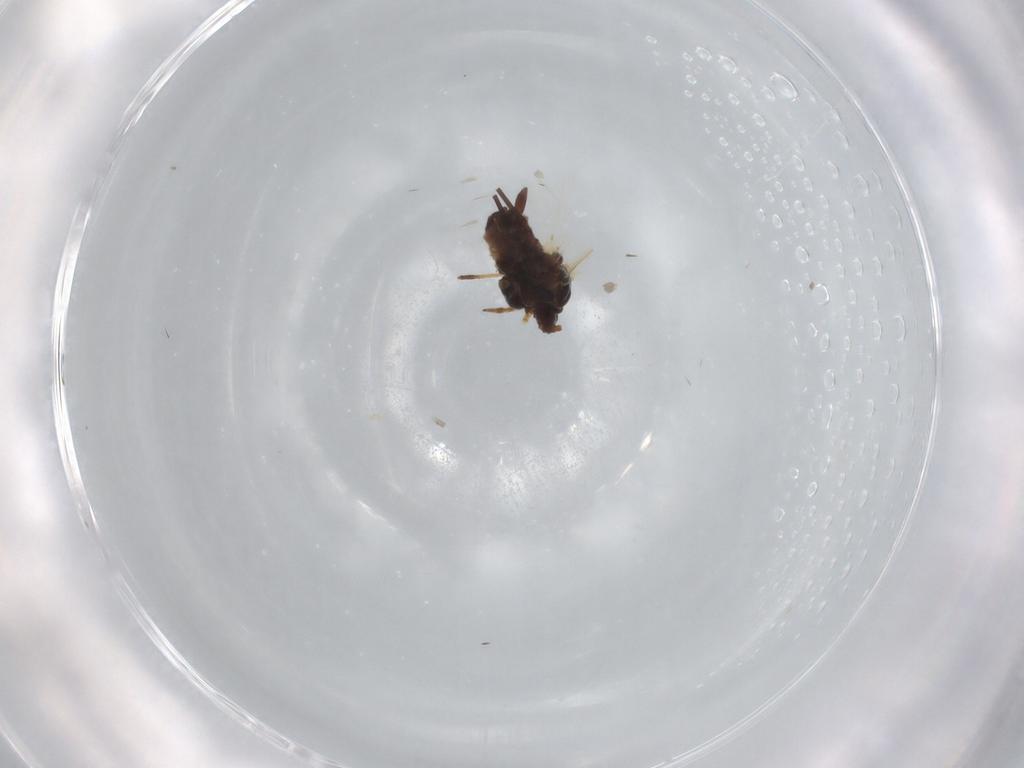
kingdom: Animalia
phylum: Arthropoda
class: Insecta
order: Hemiptera
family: Aphididae
